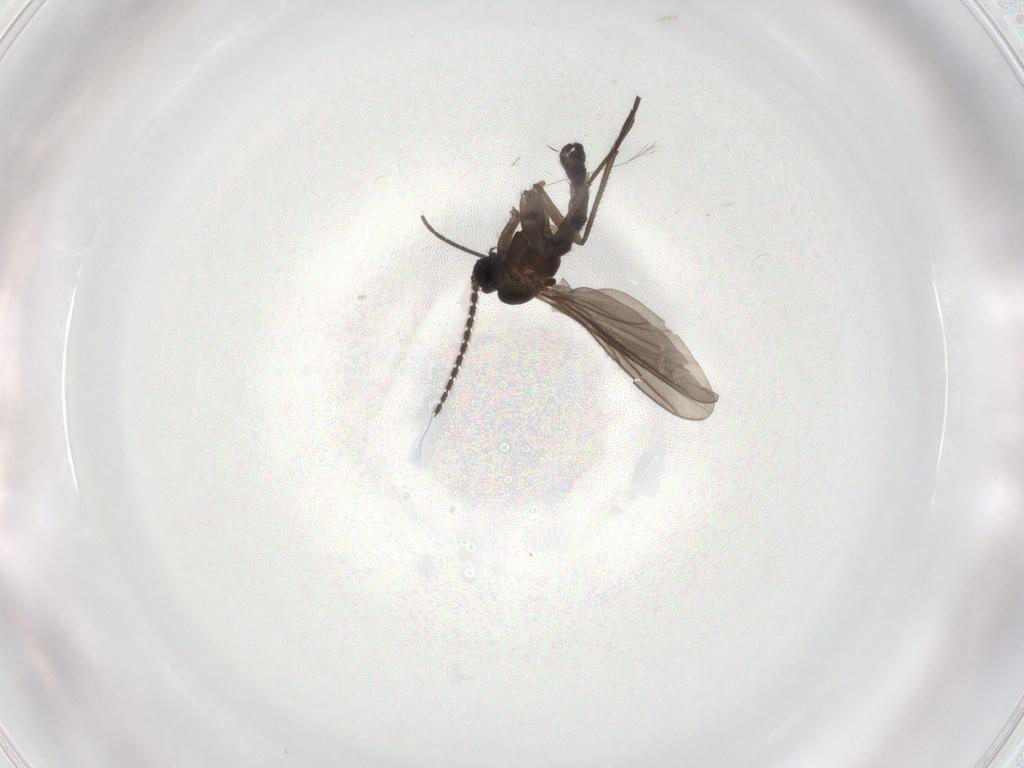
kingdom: Animalia
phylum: Arthropoda
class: Insecta
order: Diptera
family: Sciaridae
